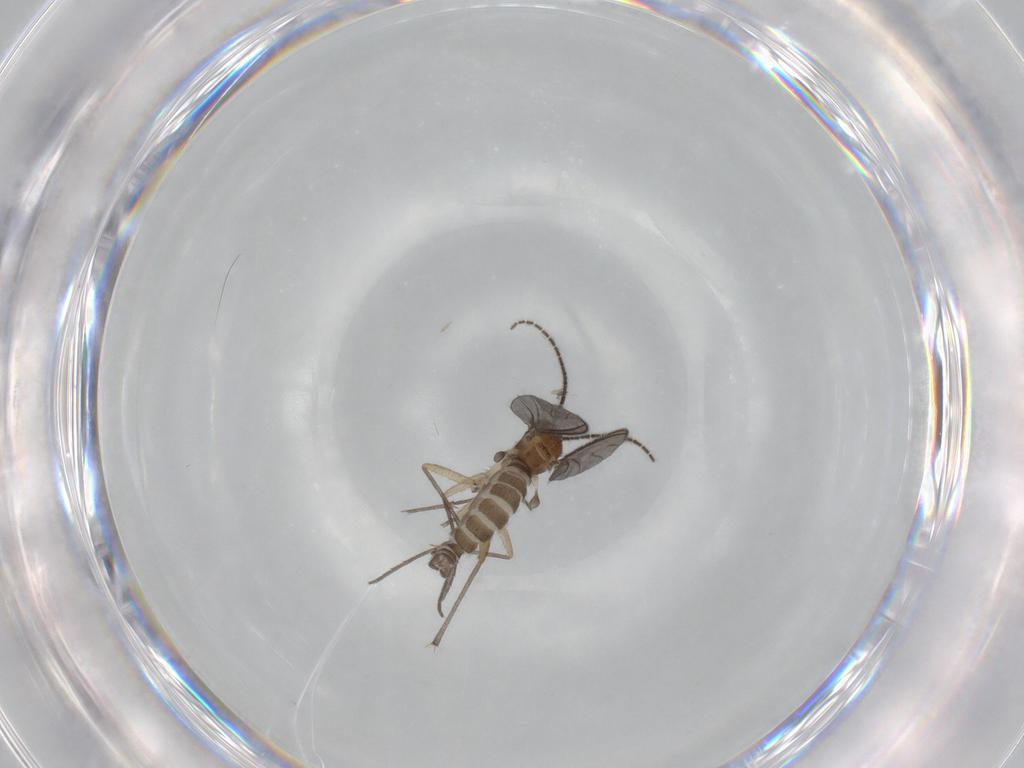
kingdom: Animalia
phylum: Arthropoda
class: Insecta
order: Diptera
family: Sciaridae
